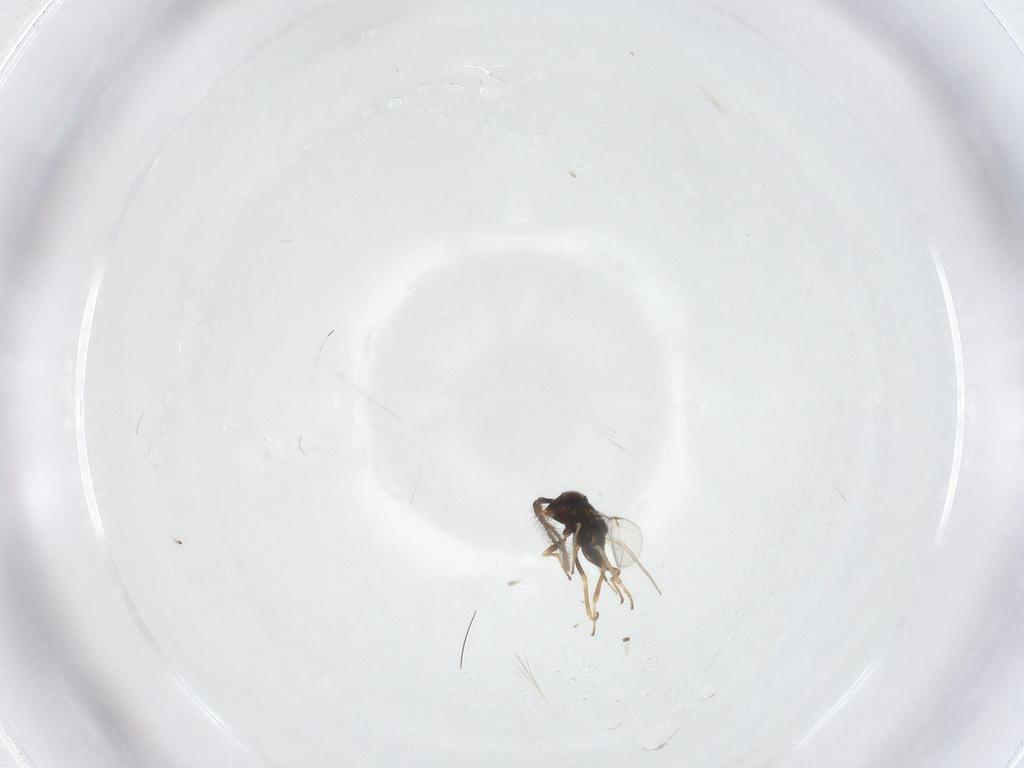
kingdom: Animalia
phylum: Arthropoda
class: Insecta
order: Hymenoptera
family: Encyrtidae
